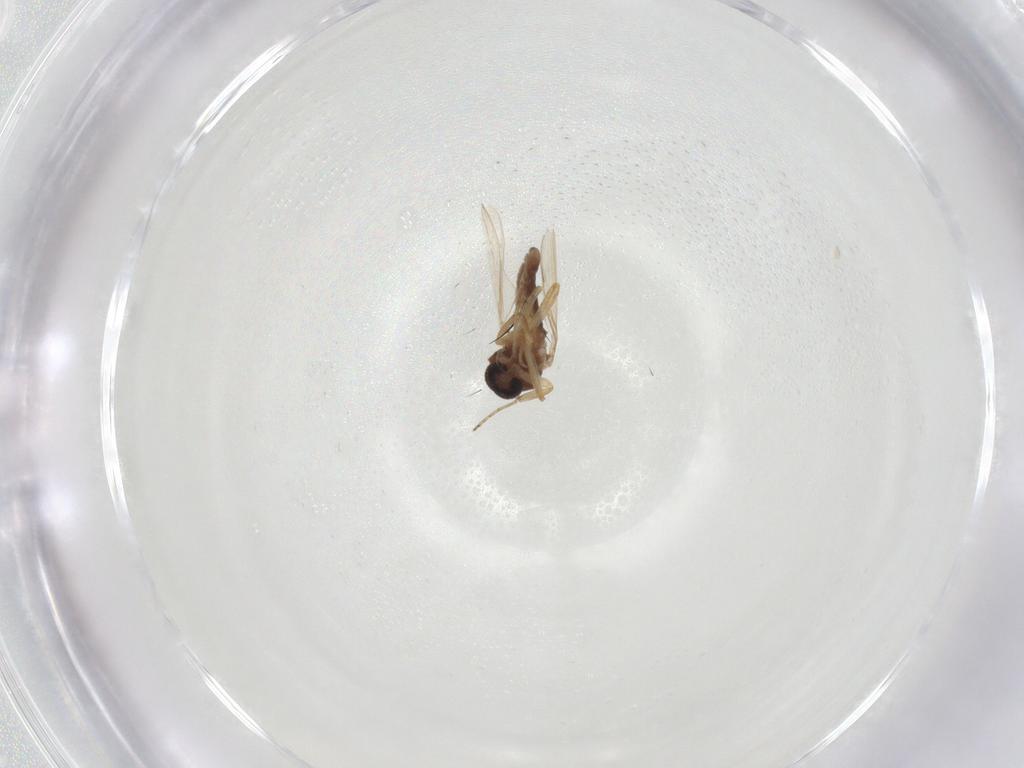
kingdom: Animalia
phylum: Arthropoda
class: Insecta
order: Diptera
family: Ceratopogonidae
